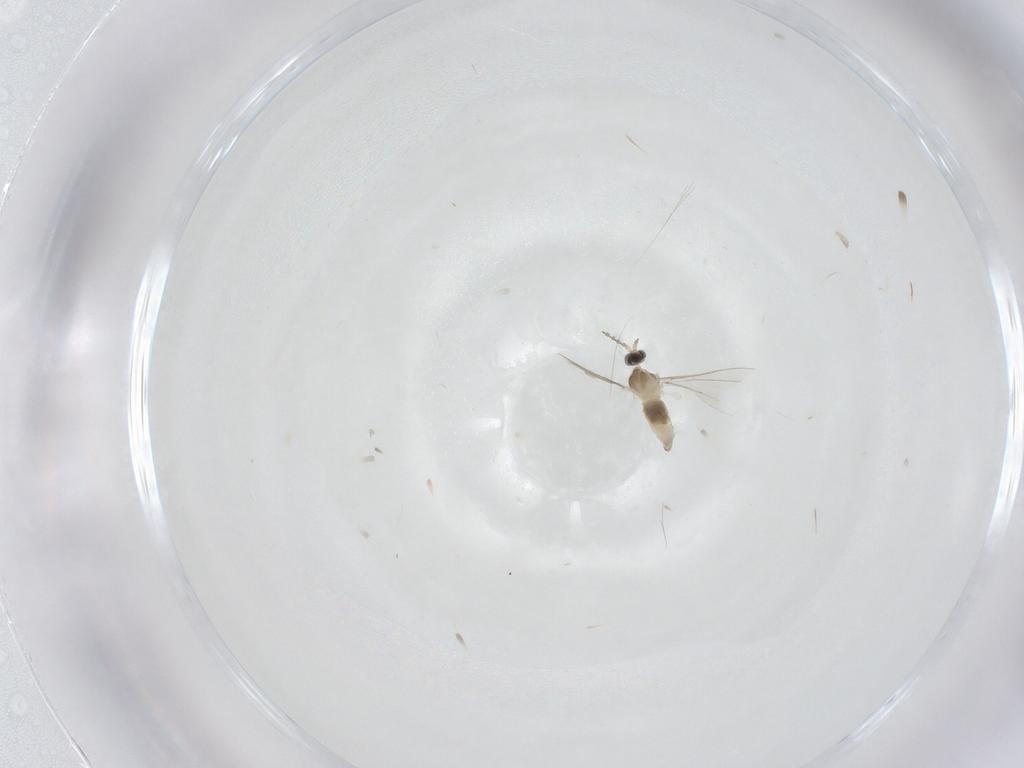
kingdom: Animalia
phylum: Arthropoda
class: Insecta
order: Diptera
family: Cecidomyiidae
